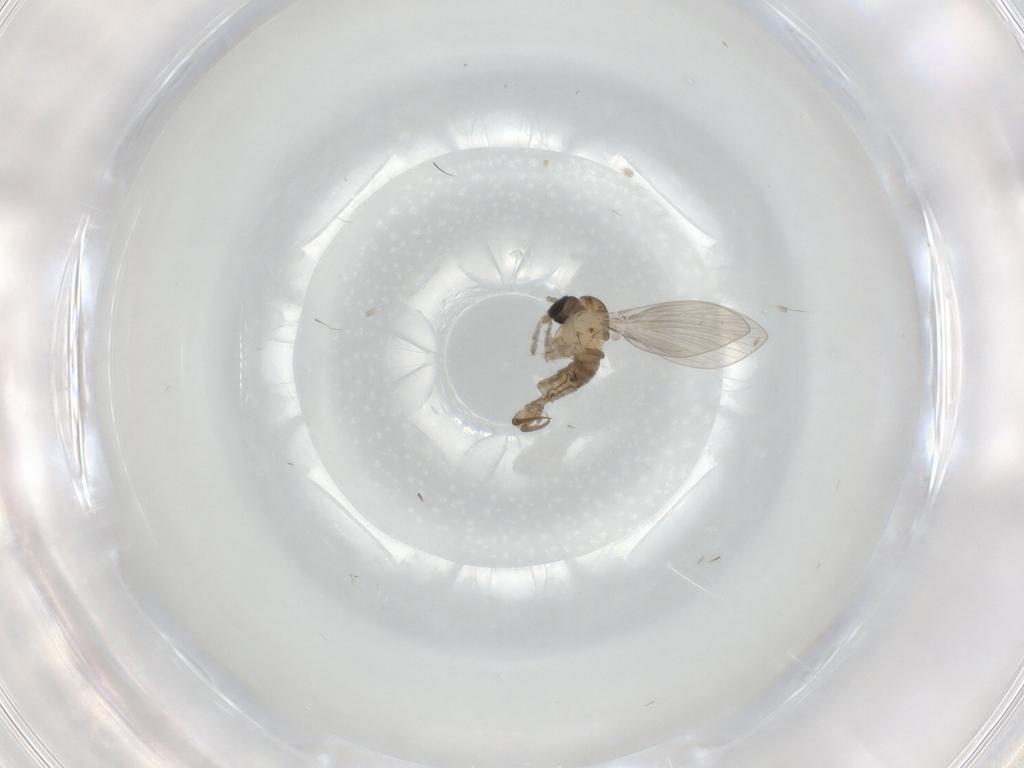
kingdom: Animalia
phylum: Arthropoda
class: Insecta
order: Diptera
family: Drosophilidae
